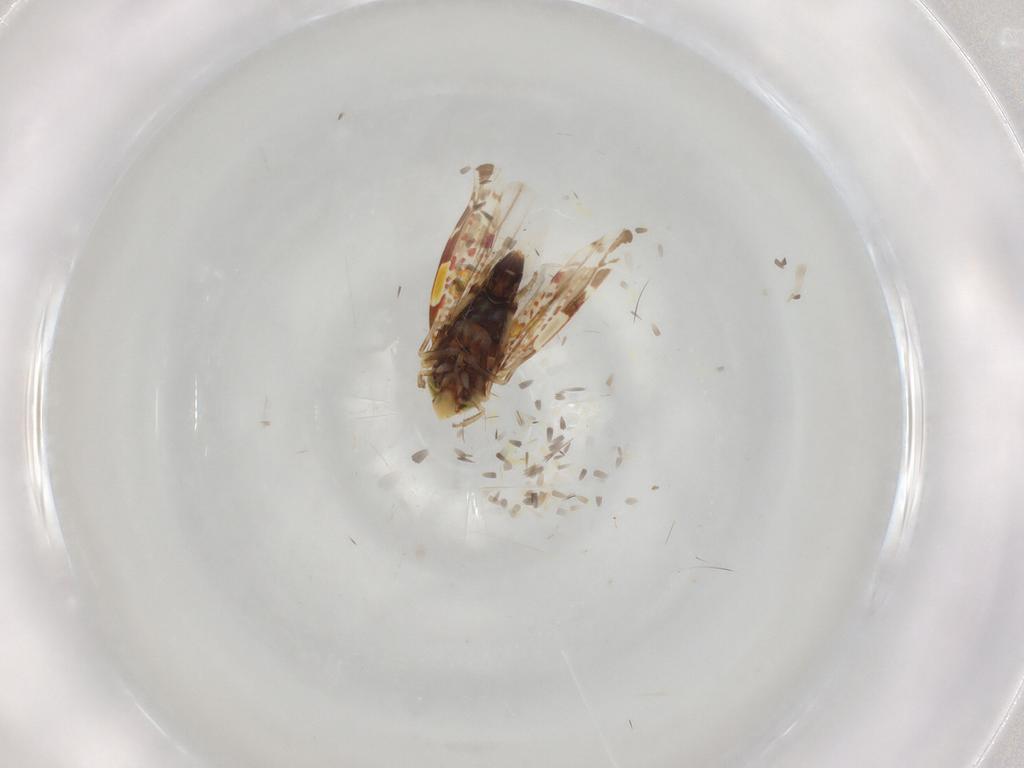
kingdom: Animalia
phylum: Arthropoda
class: Insecta
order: Hemiptera
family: Cicadellidae
